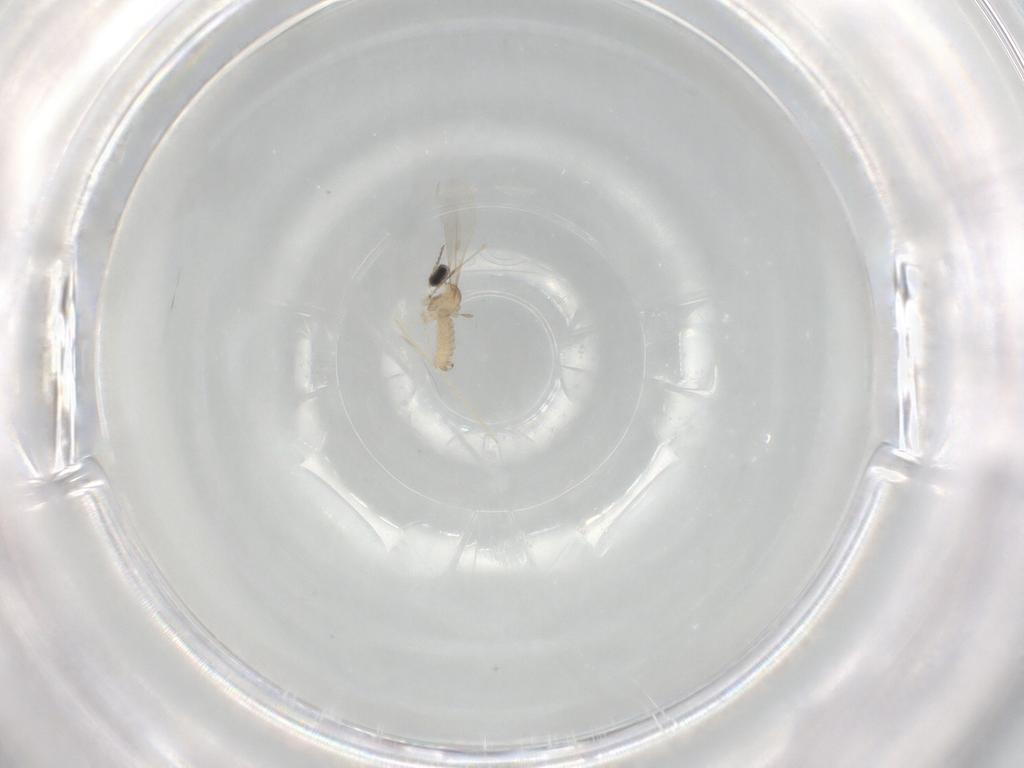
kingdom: Animalia
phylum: Arthropoda
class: Insecta
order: Diptera
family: Cecidomyiidae
